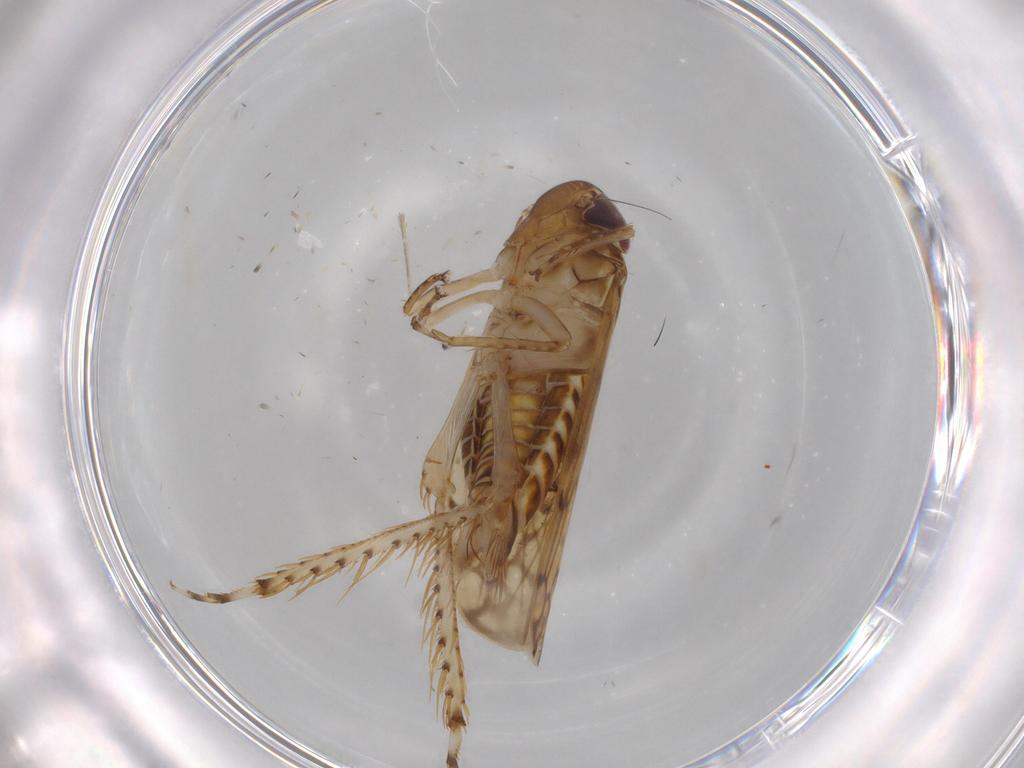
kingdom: Animalia
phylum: Arthropoda
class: Insecta
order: Hemiptera
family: Cicadellidae
